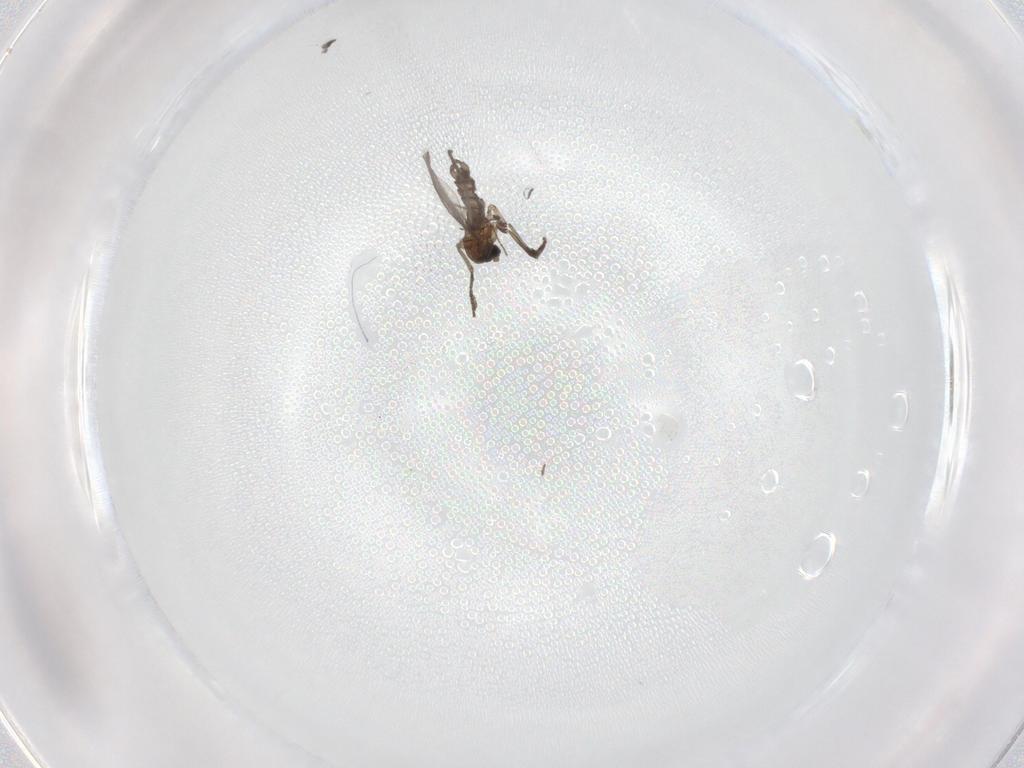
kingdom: Animalia
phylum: Arthropoda
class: Insecta
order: Diptera
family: Sciaridae
